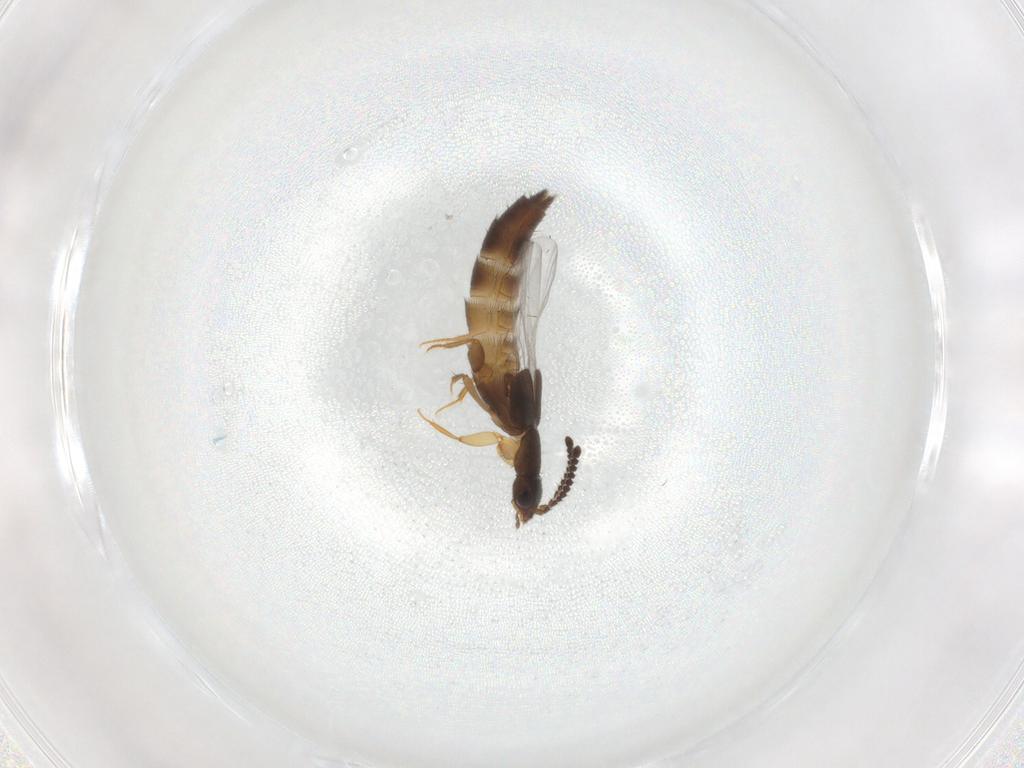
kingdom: Animalia
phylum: Arthropoda
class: Insecta
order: Coleoptera
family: Staphylinidae
